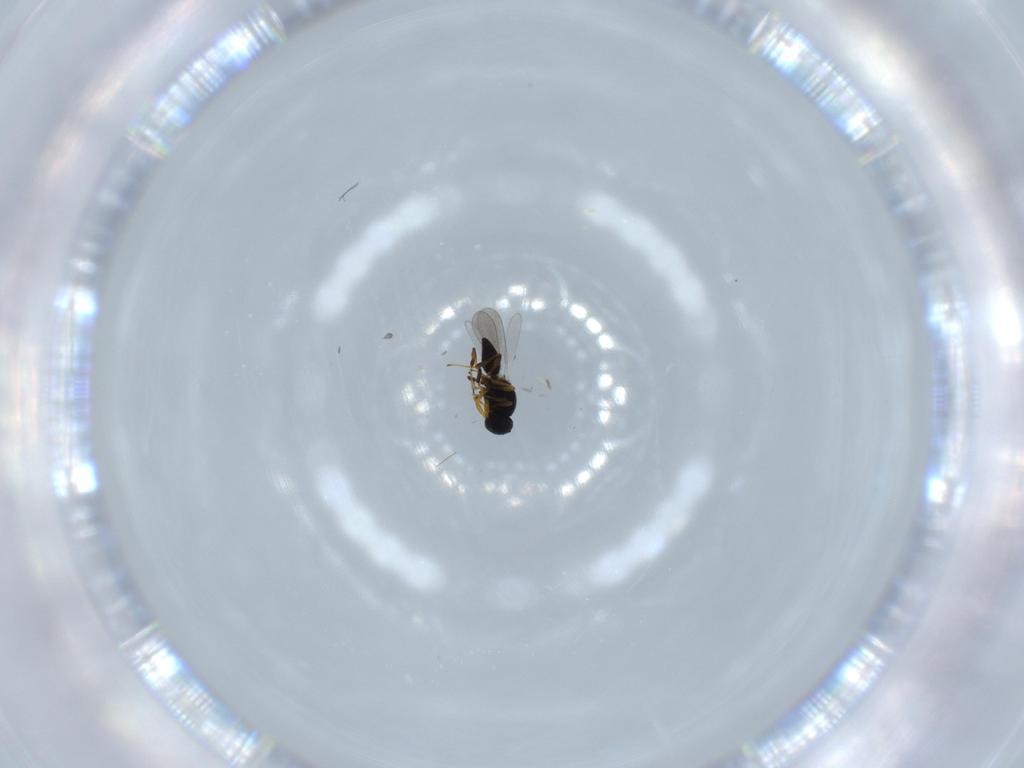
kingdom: Animalia
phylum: Arthropoda
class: Insecta
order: Hymenoptera
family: Platygastridae
